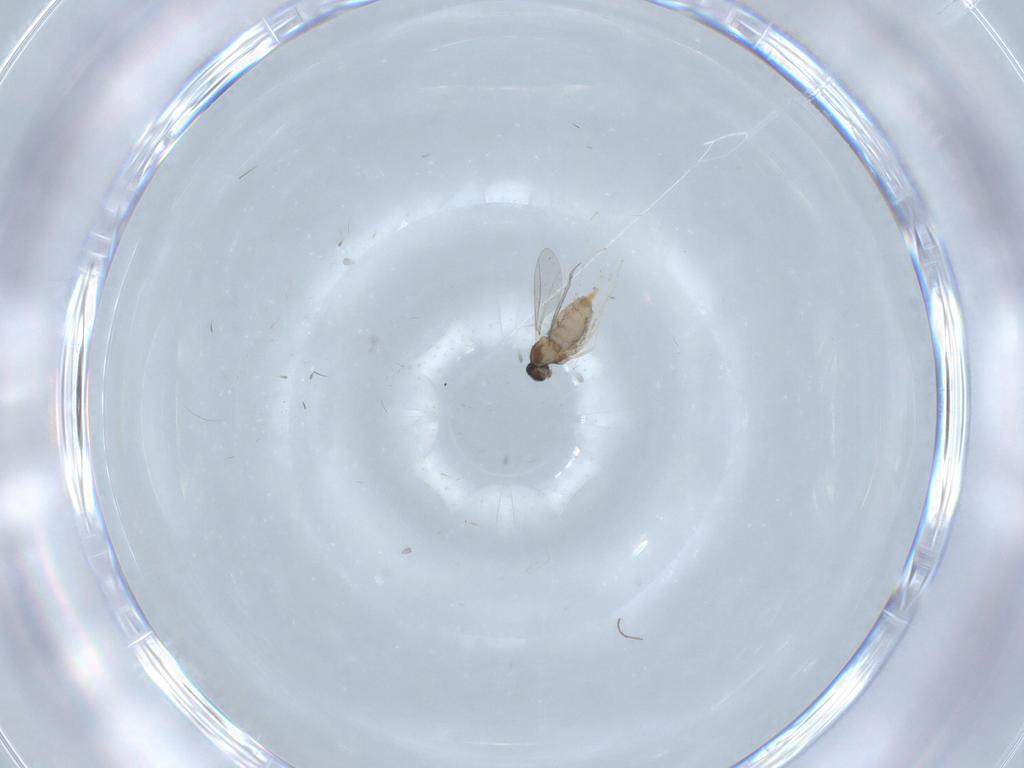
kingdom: Animalia
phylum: Arthropoda
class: Insecta
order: Diptera
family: Chironomidae
